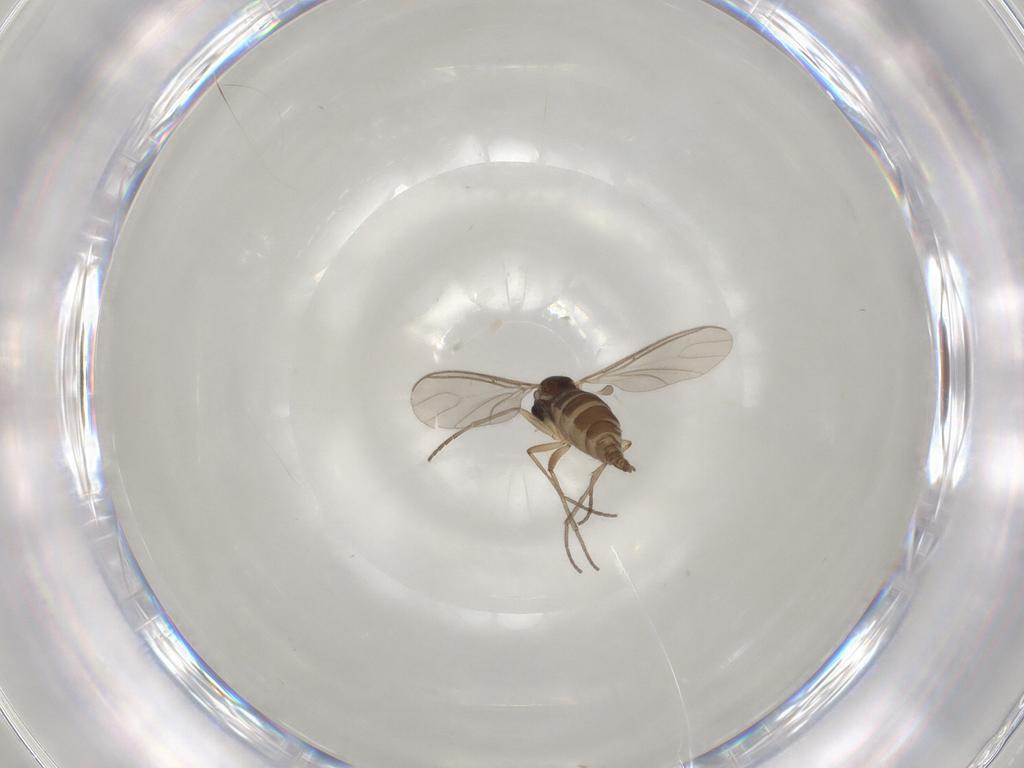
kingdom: Animalia
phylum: Arthropoda
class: Insecta
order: Diptera
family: Sciaridae
